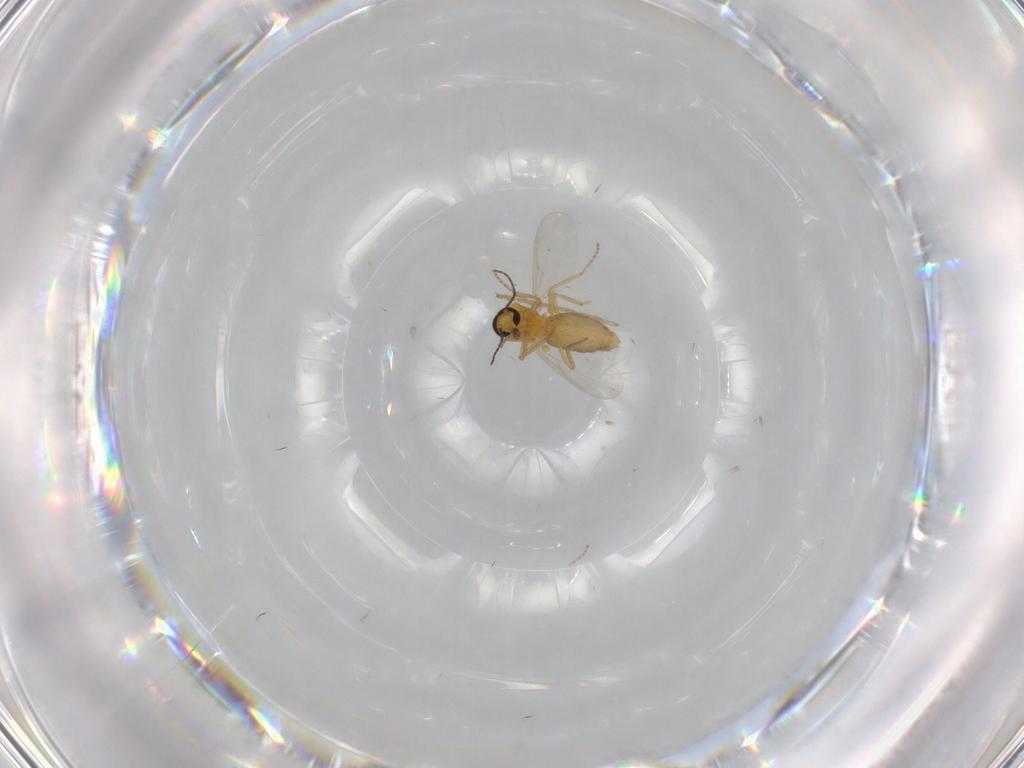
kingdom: Animalia
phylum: Arthropoda
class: Insecta
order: Diptera
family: Ceratopogonidae
